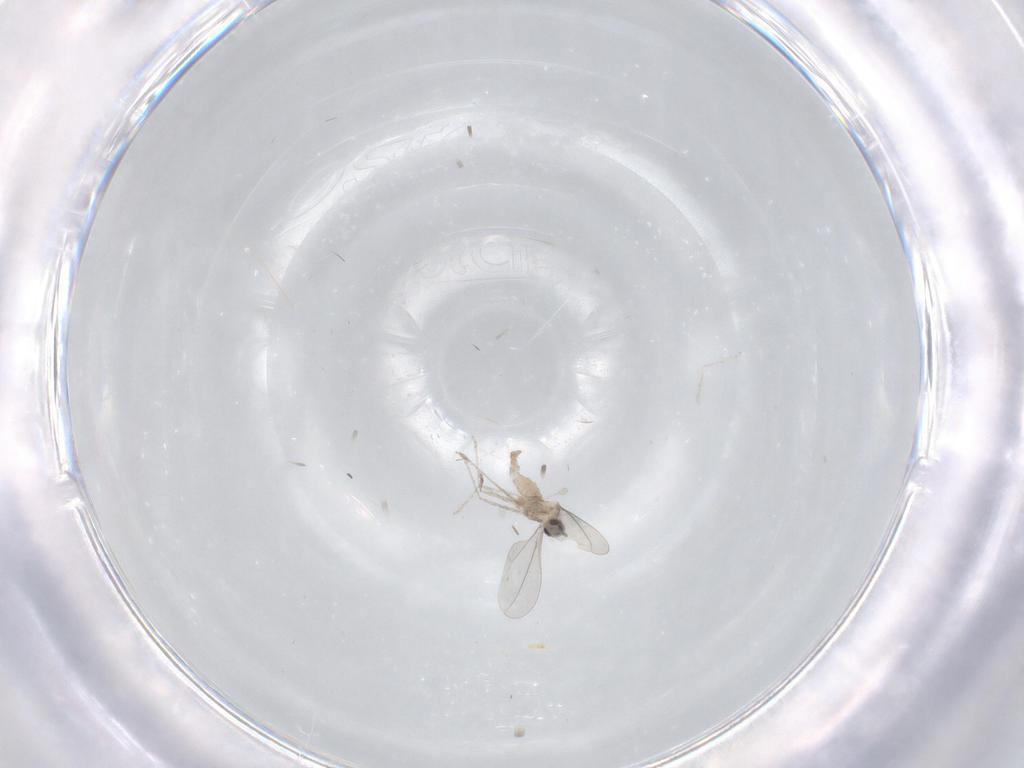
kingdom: Animalia
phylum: Arthropoda
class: Insecta
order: Diptera
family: Cecidomyiidae
